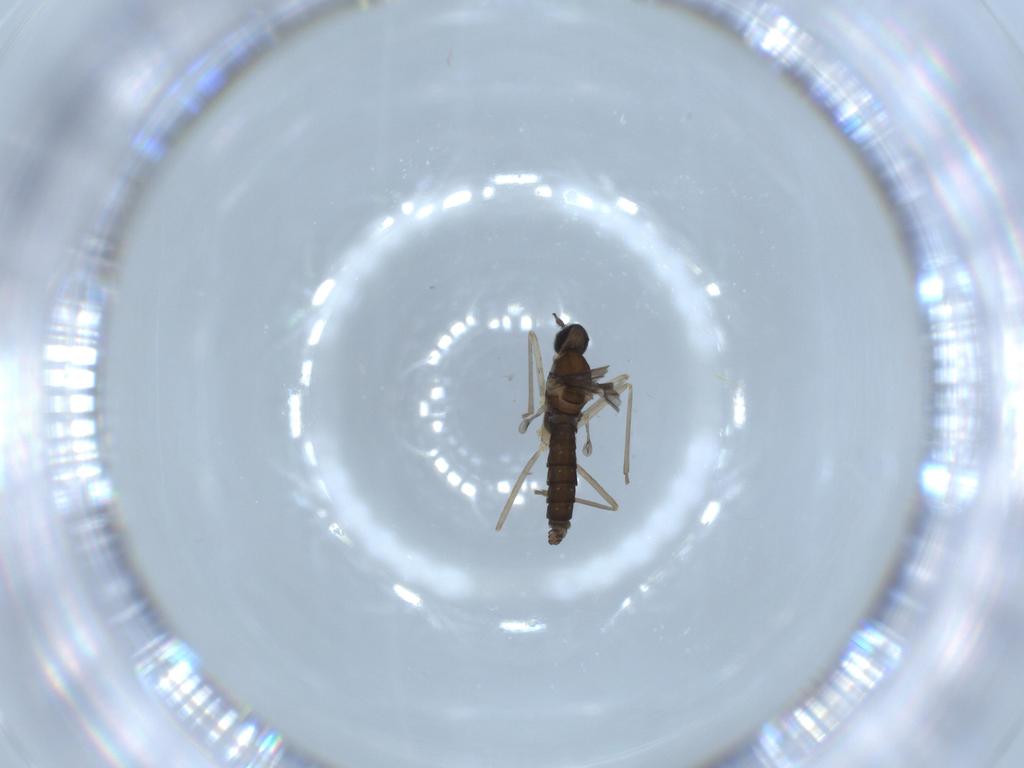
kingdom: Animalia
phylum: Arthropoda
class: Insecta
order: Diptera
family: Cecidomyiidae
